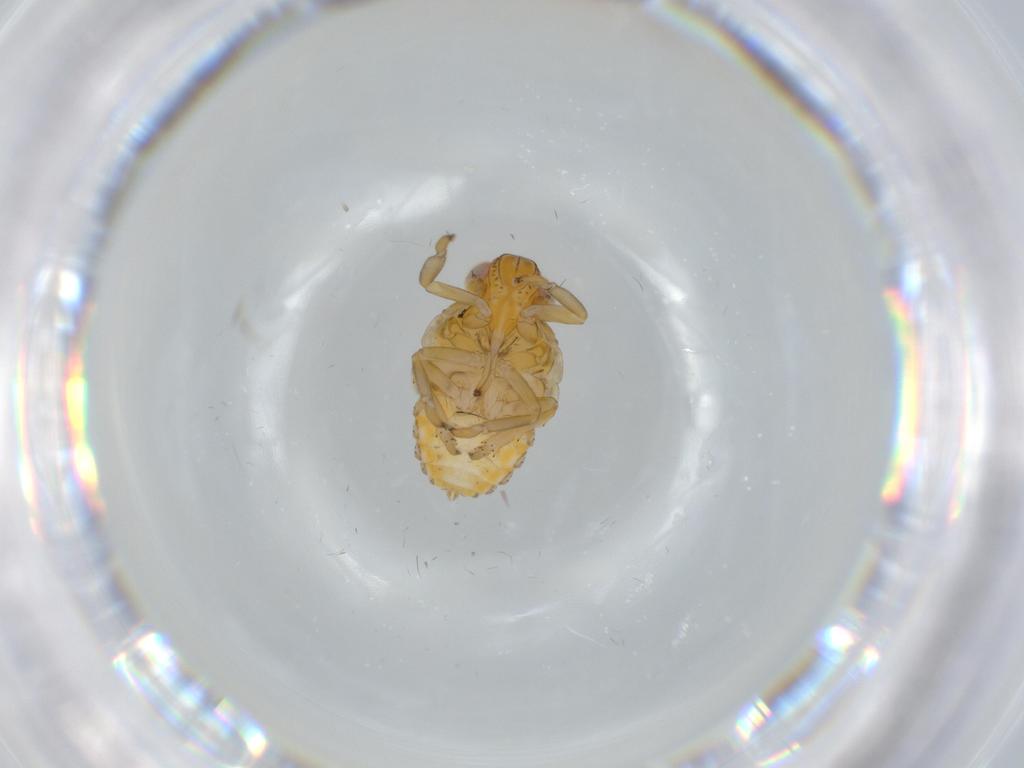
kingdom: Animalia
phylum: Arthropoda
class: Insecta
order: Hemiptera
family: Issidae
